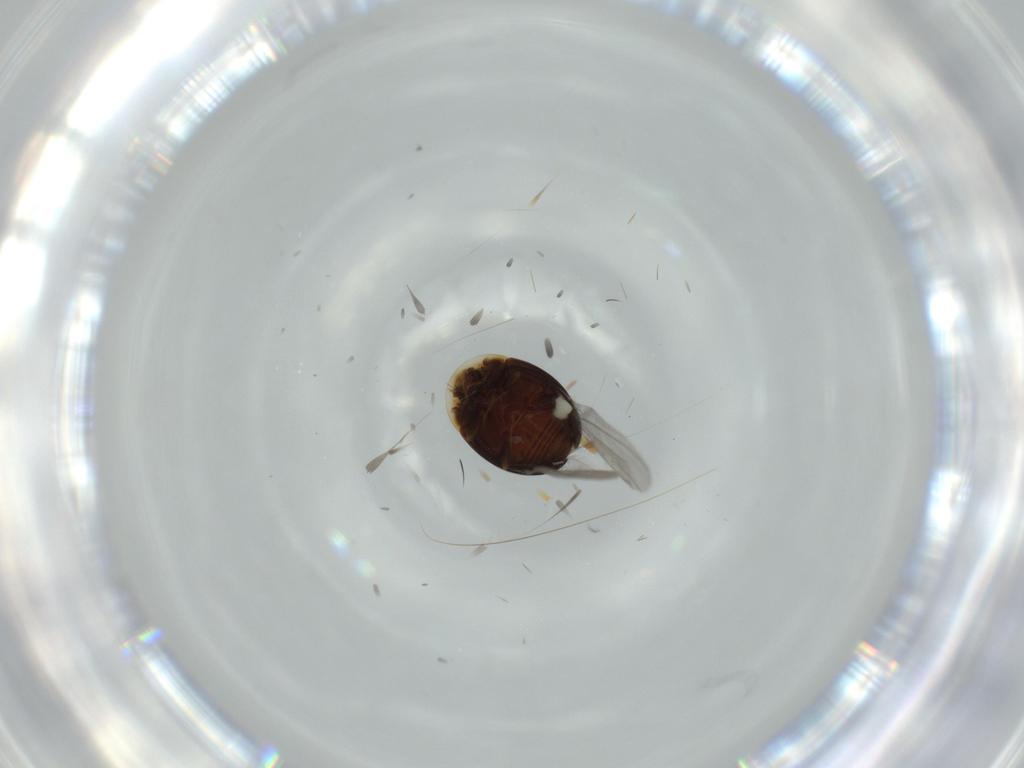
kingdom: Animalia
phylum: Arthropoda
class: Insecta
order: Coleoptera
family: Corylophidae
